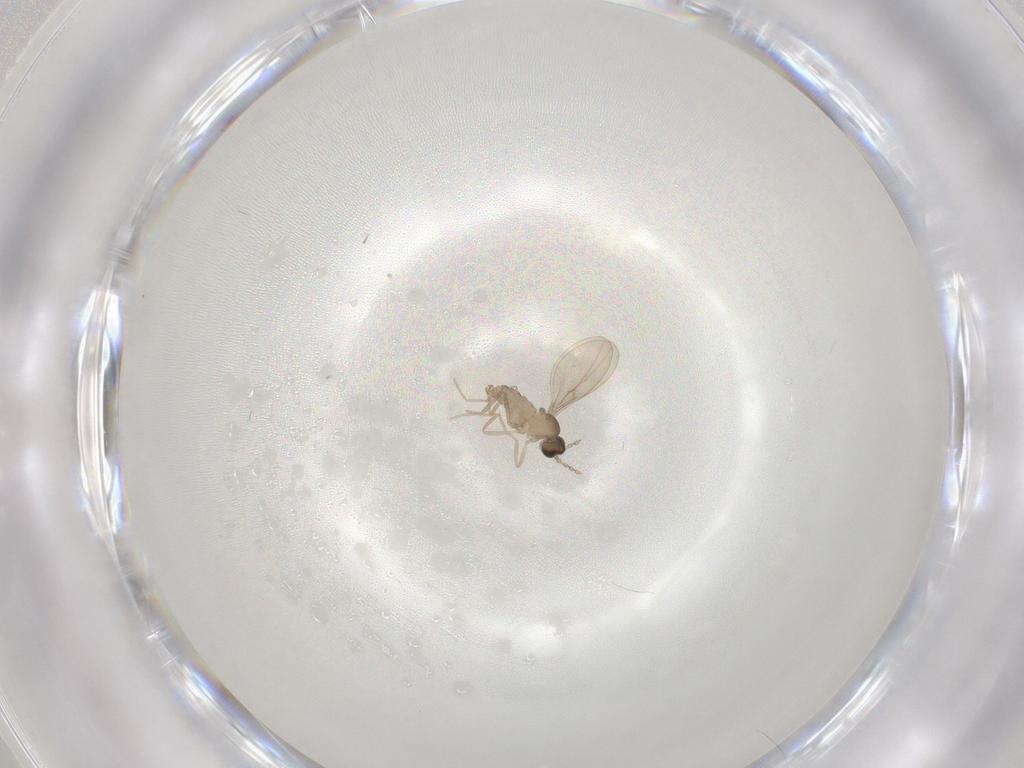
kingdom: Animalia
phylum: Arthropoda
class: Insecta
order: Diptera
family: Cecidomyiidae
